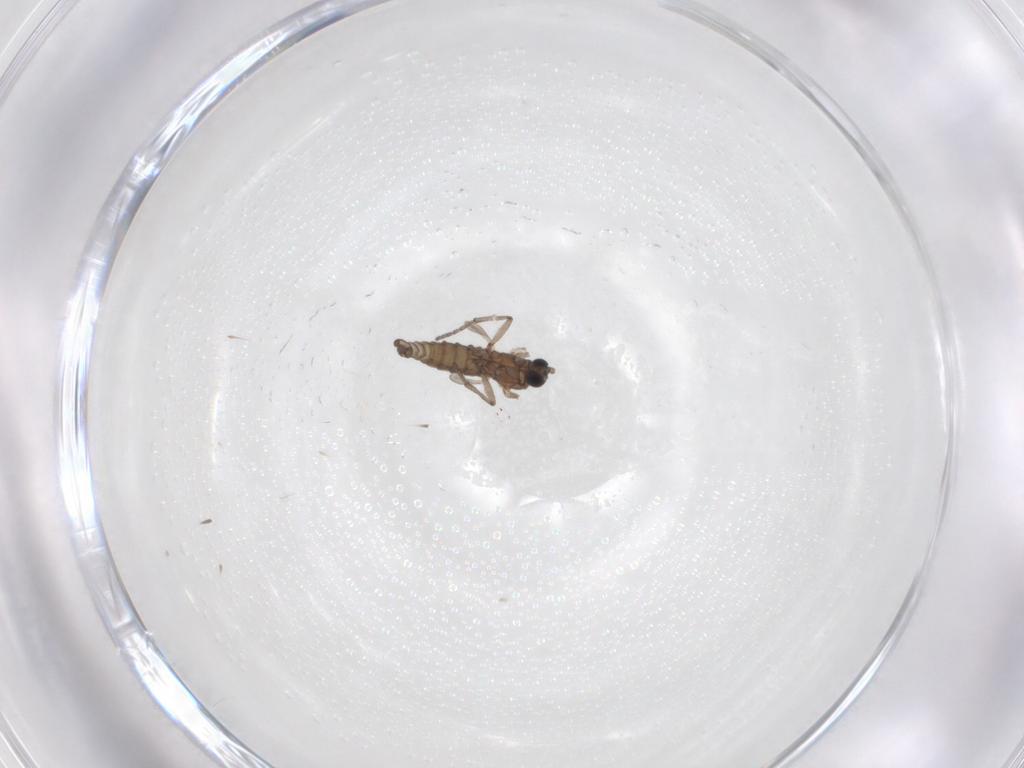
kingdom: Animalia
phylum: Arthropoda
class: Insecta
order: Diptera
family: Sciaridae
